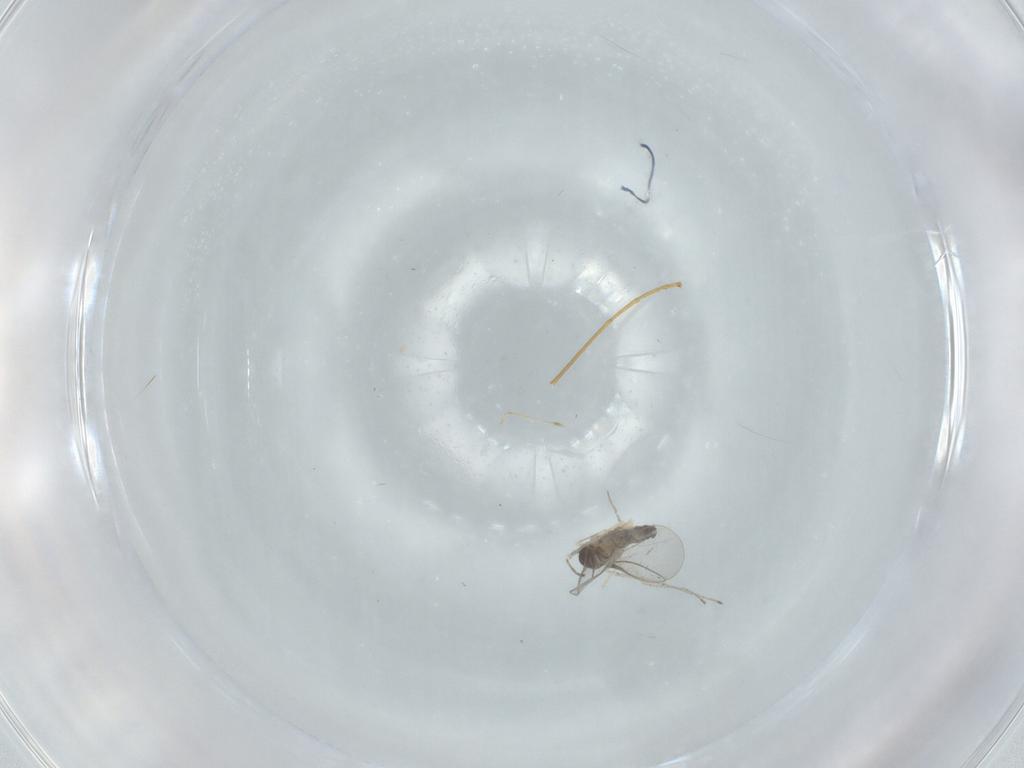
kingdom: Animalia
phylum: Arthropoda
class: Insecta
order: Diptera
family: Cecidomyiidae
